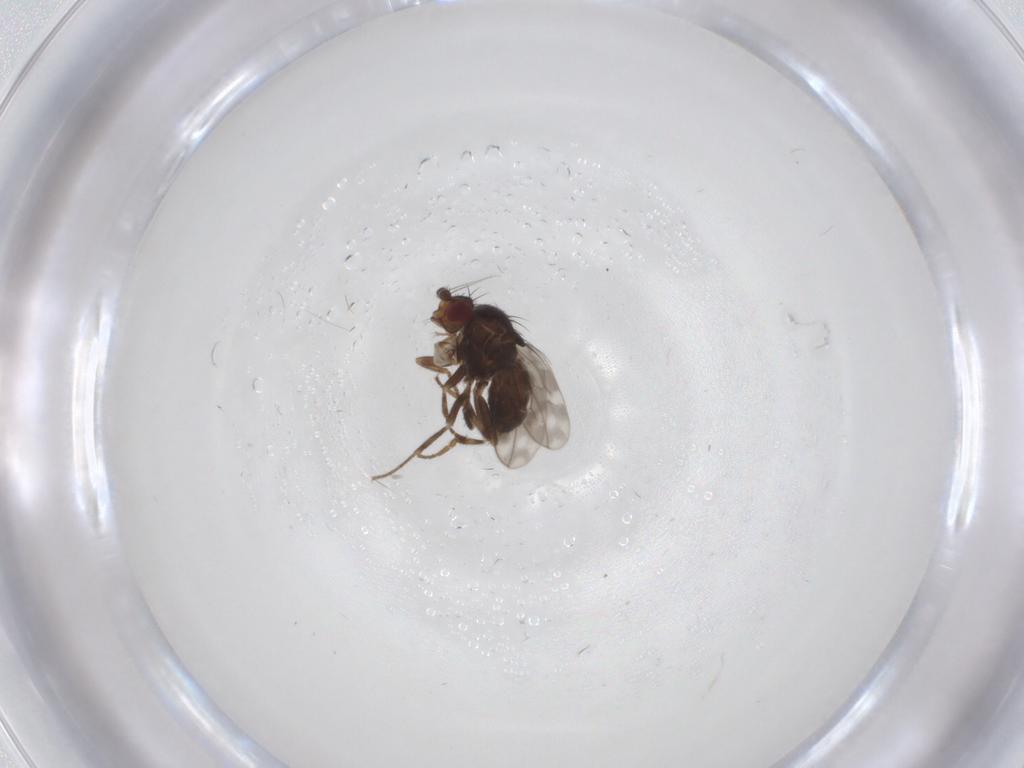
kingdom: Animalia
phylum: Arthropoda
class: Insecta
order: Diptera
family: Sphaeroceridae
